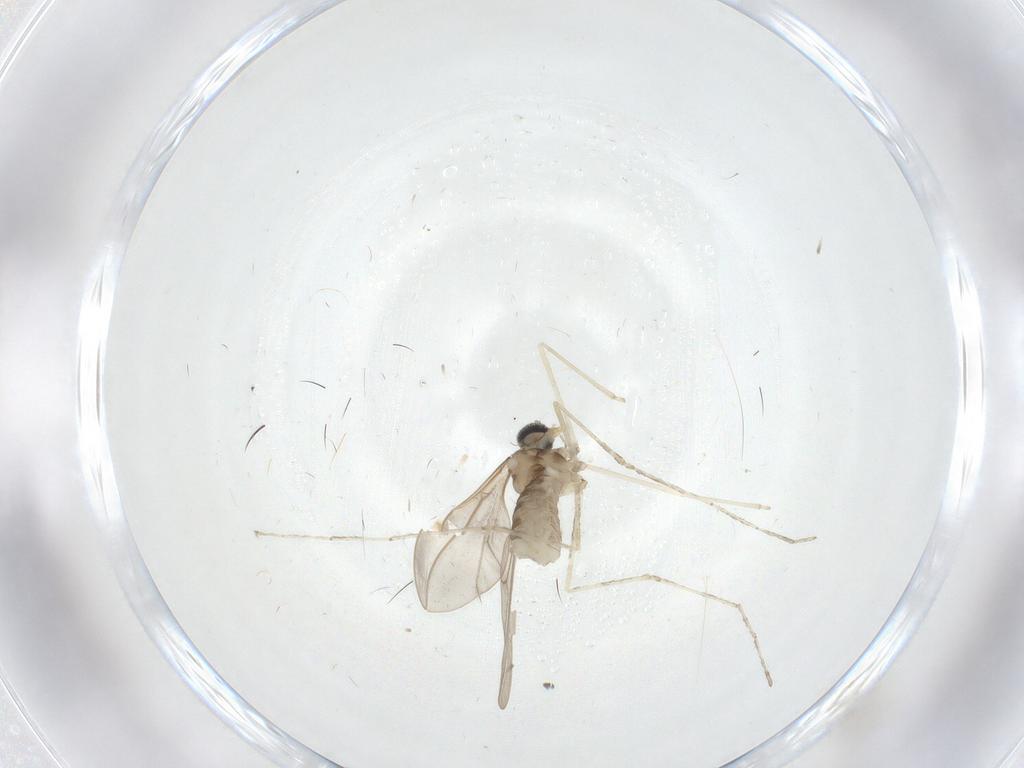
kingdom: Animalia
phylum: Arthropoda
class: Insecta
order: Diptera
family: Cecidomyiidae
